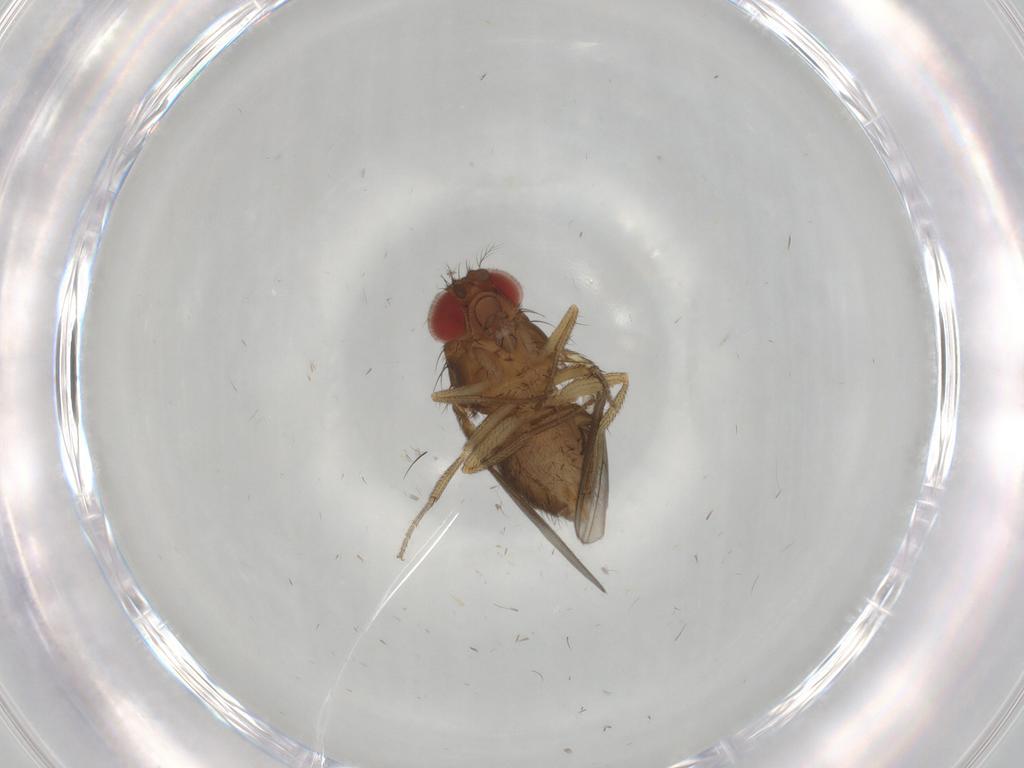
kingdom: Animalia
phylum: Arthropoda
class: Insecta
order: Diptera
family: Drosophilidae
